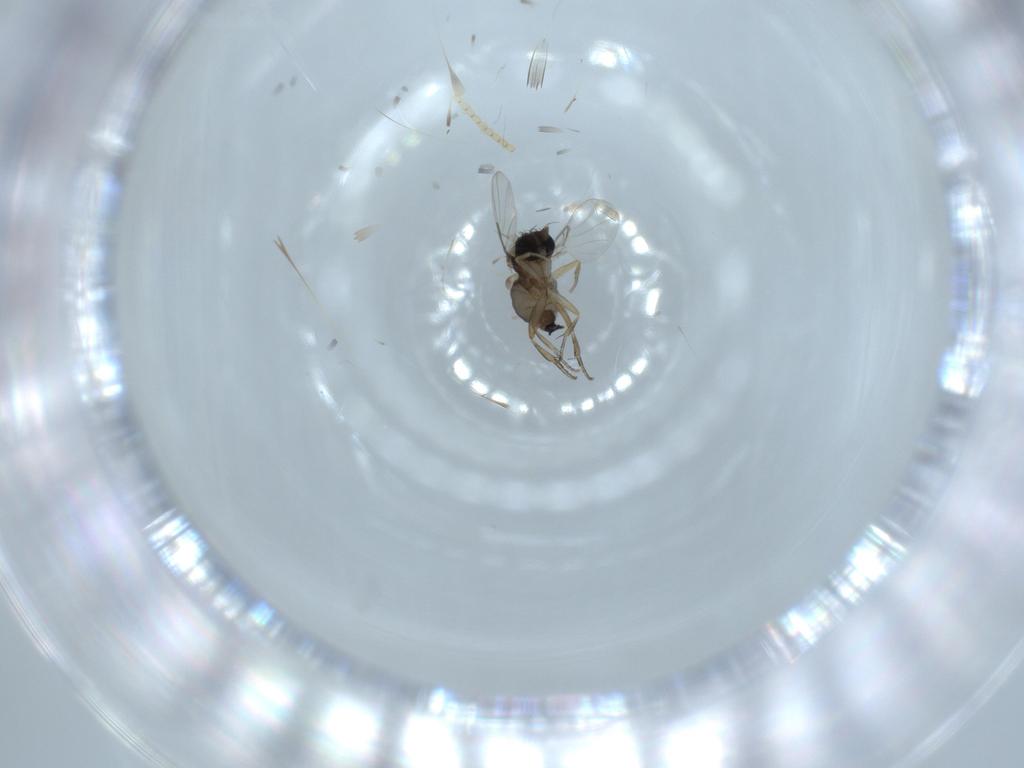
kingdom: Animalia
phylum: Arthropoda
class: Insecta
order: Diptera
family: Phoridae
